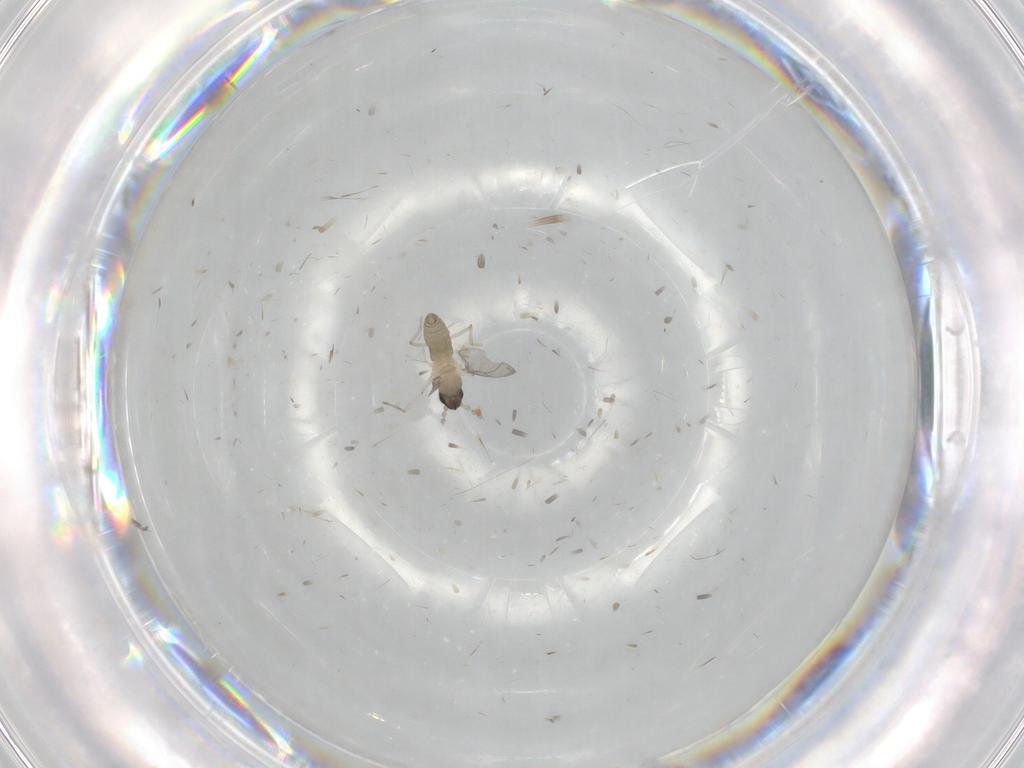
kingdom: Animalia
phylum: Arthropoda
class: Insecta
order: Diptera
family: Cecidomyiidae
